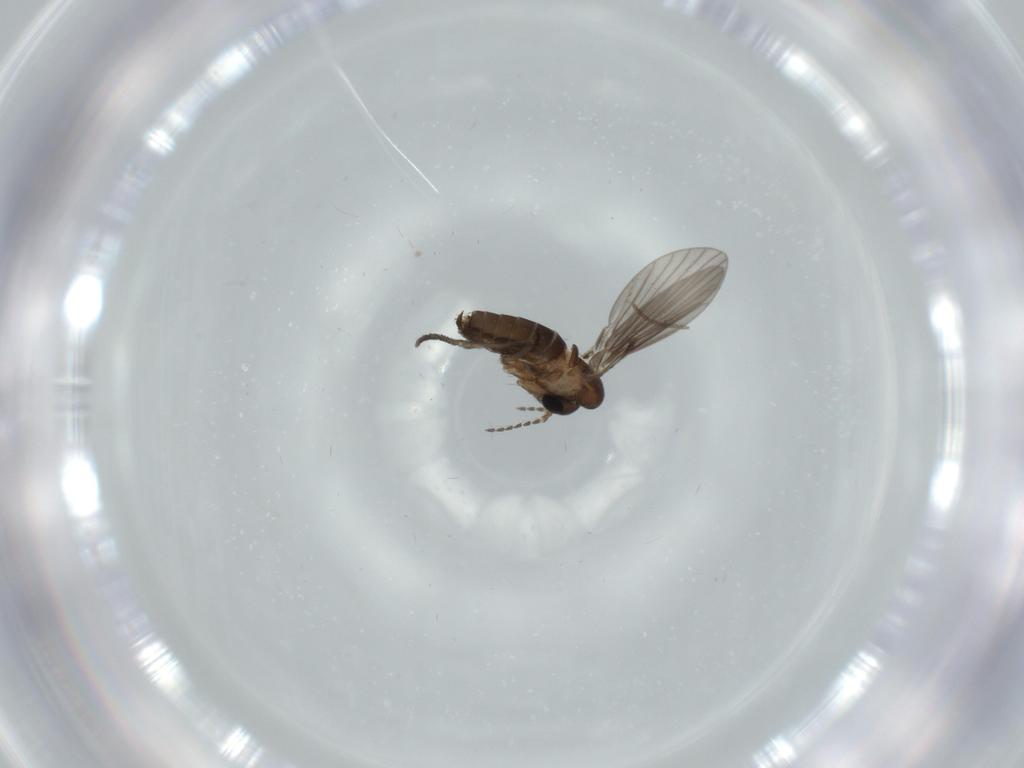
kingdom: Animalia
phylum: Arthropoda
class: Insecta
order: Diptera
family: Psychodidae
